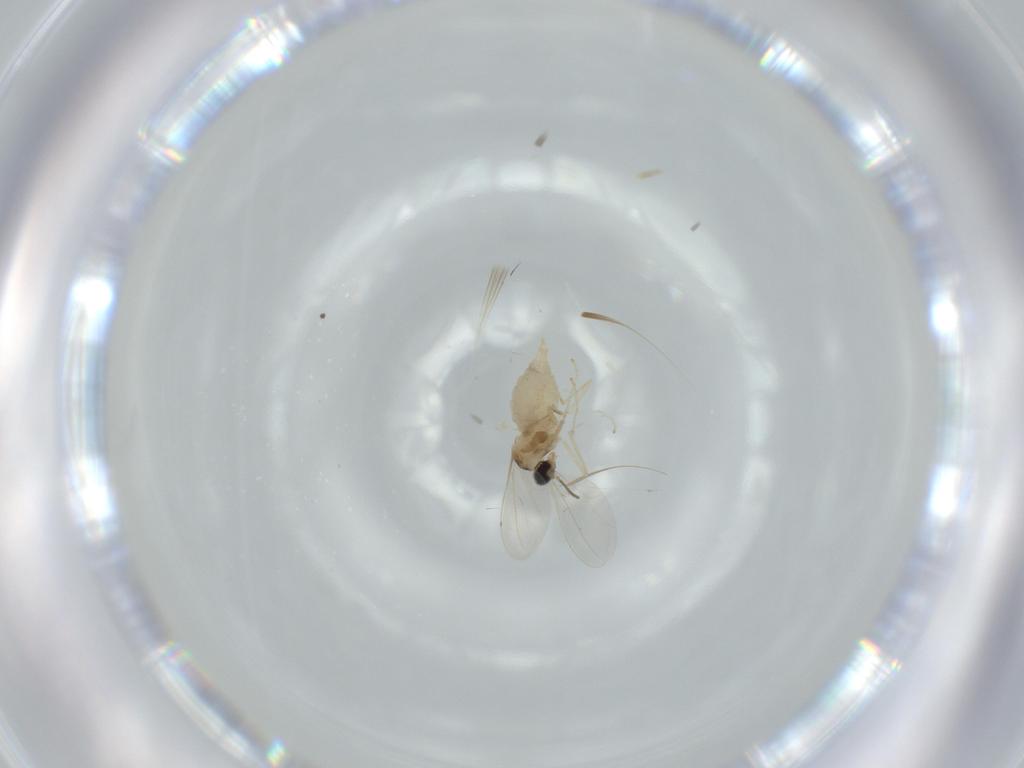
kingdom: Animalia
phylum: Arthropoda
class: Insecta
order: Diptera
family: Cecidomyiidae
